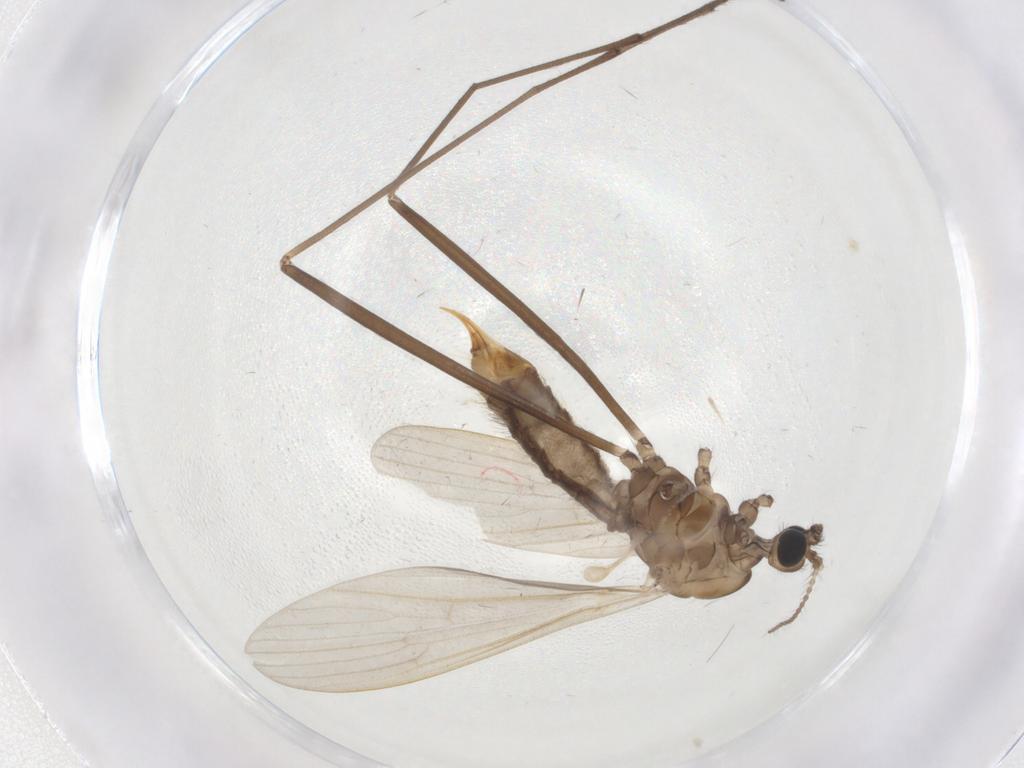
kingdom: Animalia
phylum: Arthropoda
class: Insecta
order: Diptera
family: Limoniidae
